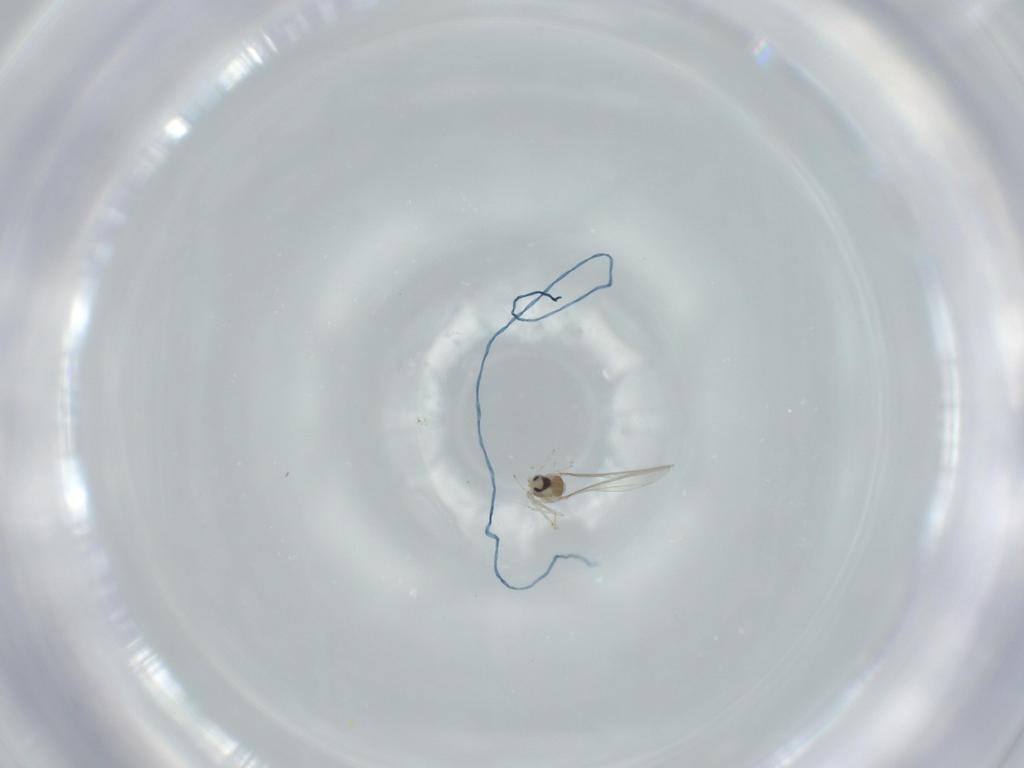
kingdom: Animalia
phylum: Arthropoda
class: Insecta
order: Diptera
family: Cecidomyiidae
